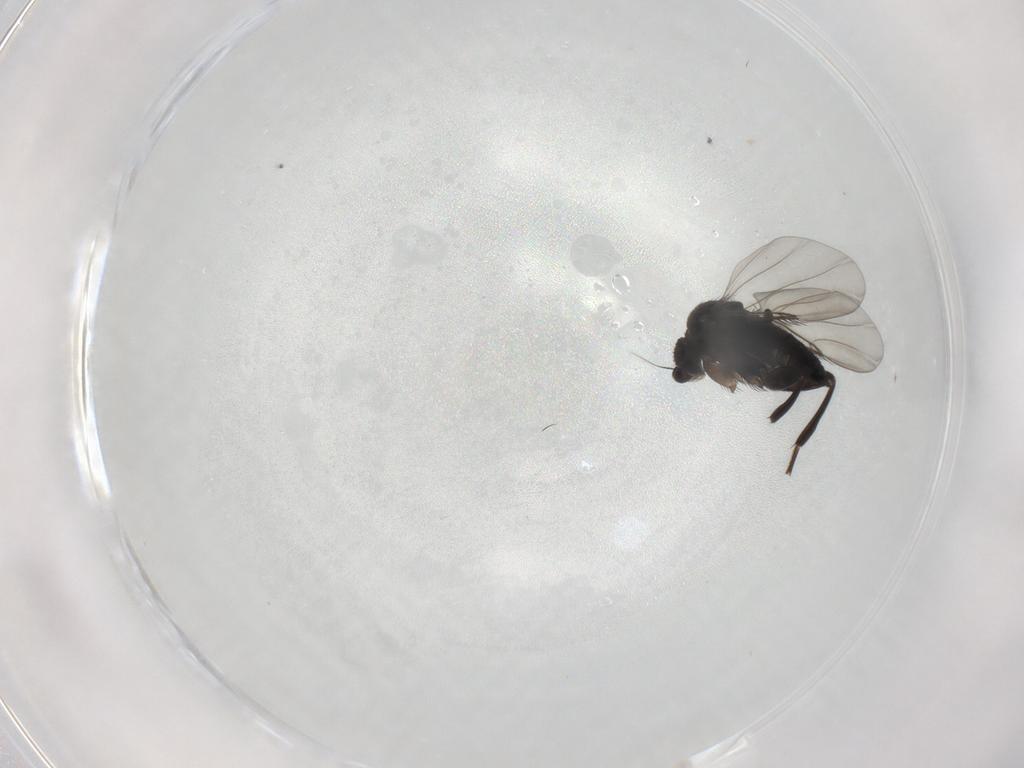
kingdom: Animalia
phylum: Arthropoda
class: Insecta
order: Diptera
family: Phoridae
